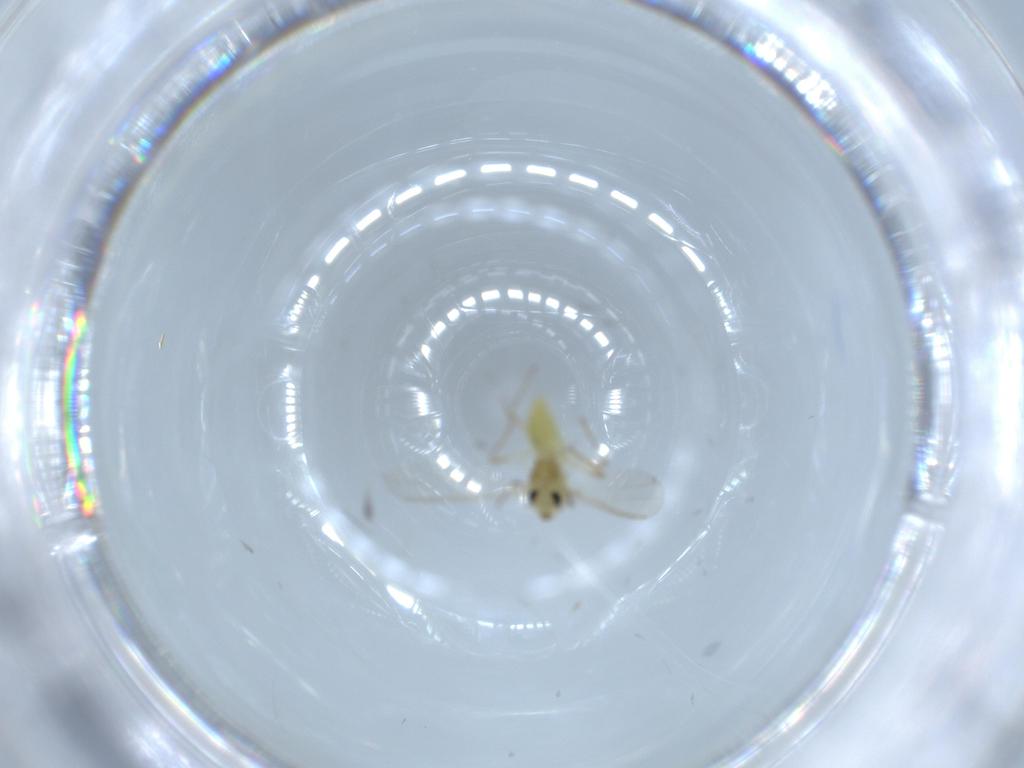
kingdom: Animalia
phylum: Arthropoda
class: Insecta
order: Diptera
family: Chironomidae
